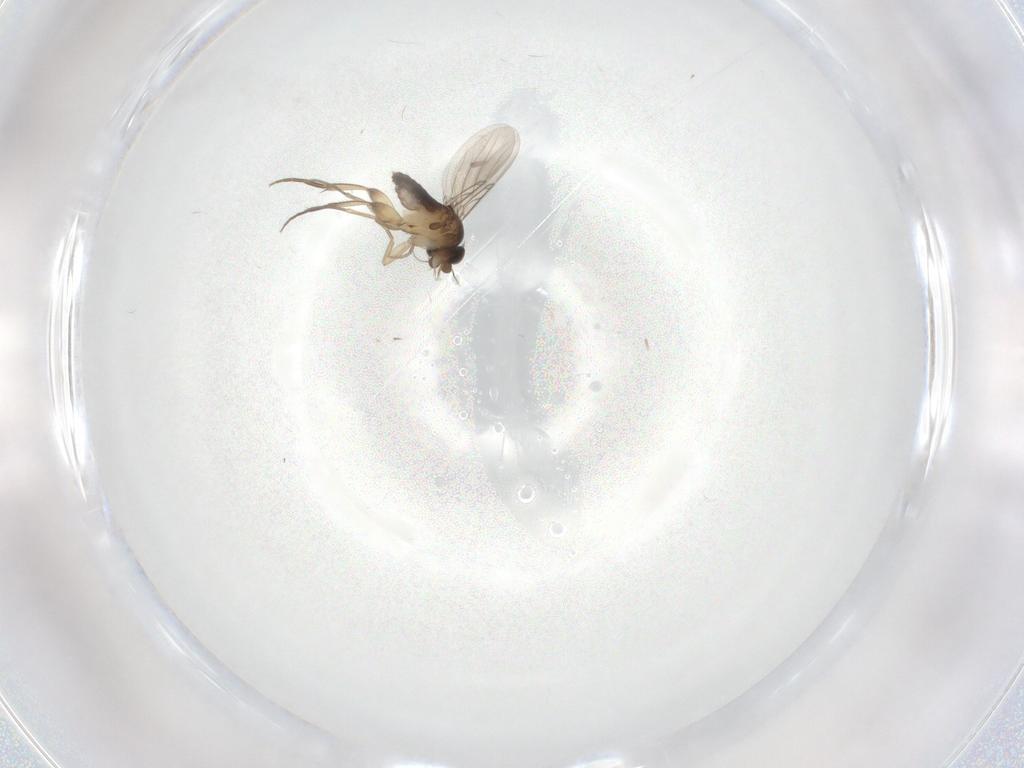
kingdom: Animalia
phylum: Arthropoda
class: Insecta
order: Diptera
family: Phoridae
